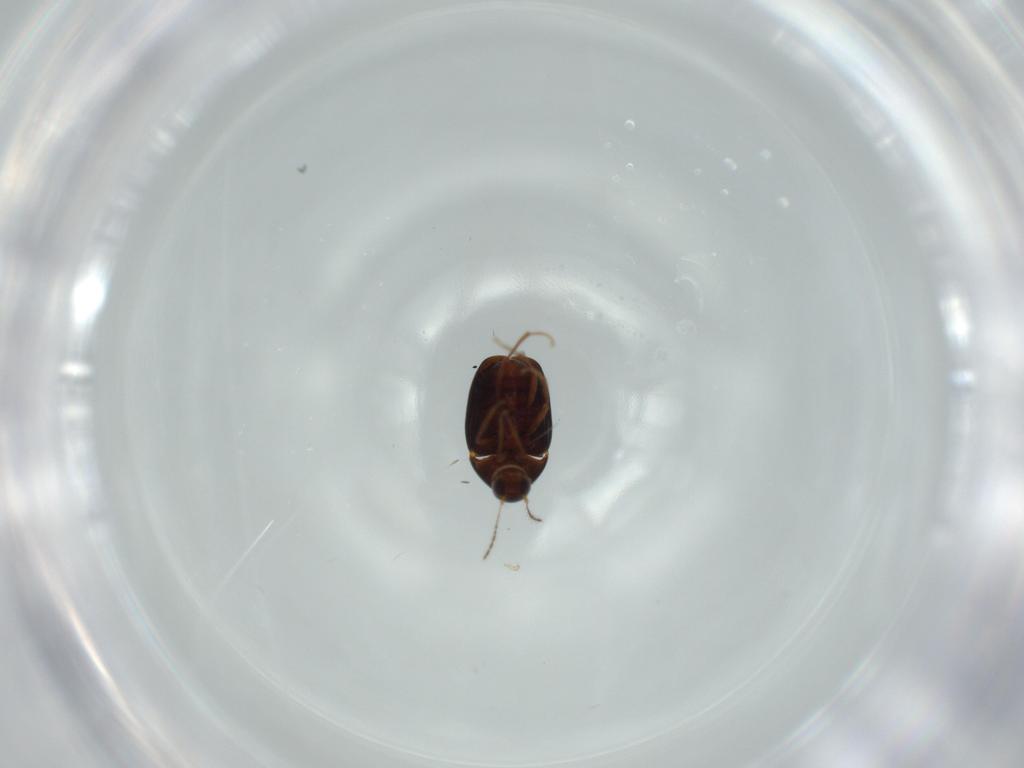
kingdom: Animalia
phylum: Arthropoda
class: Insecta
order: Coleoptera
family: Staphylinidae
